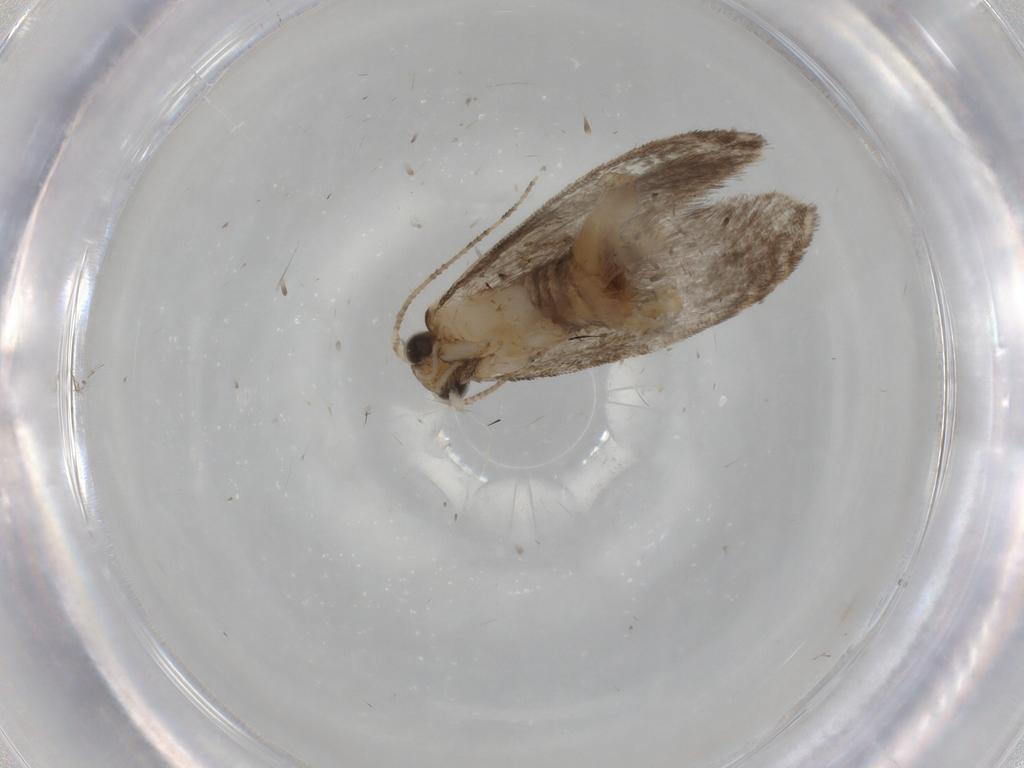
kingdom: Animalia
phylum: Arthropoda
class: Insecta
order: Lepidoptera
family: Tineidae
